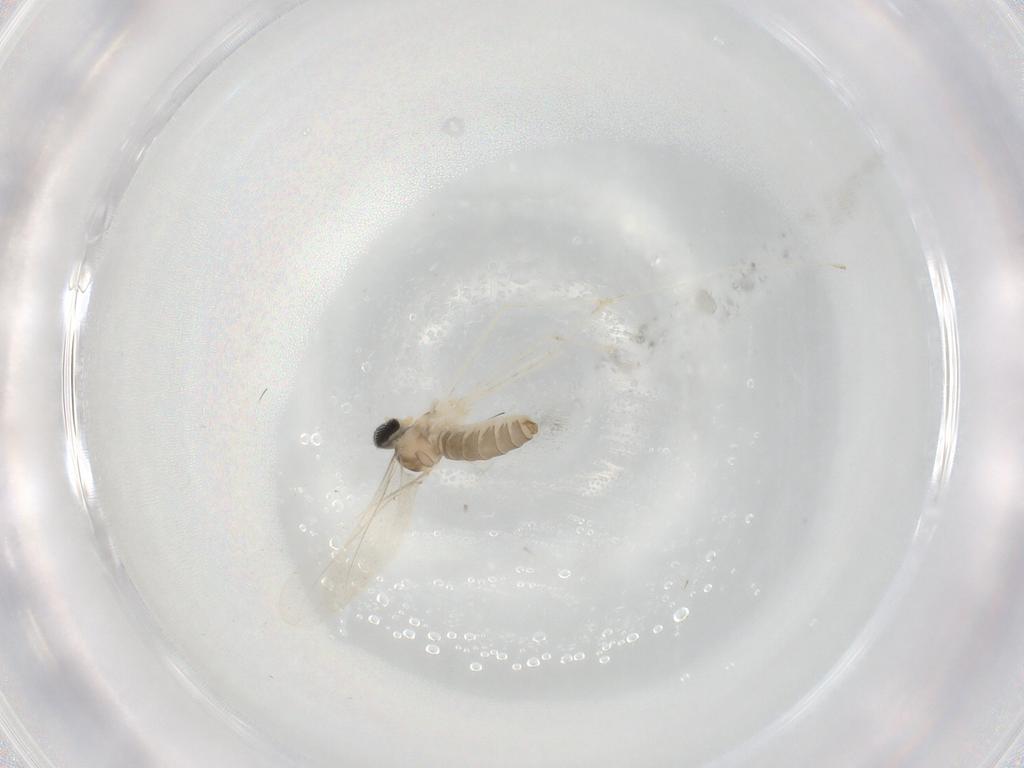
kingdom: Animalia
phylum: Arthropoda
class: Insecta
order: Diptera
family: Cecidomyiidae
